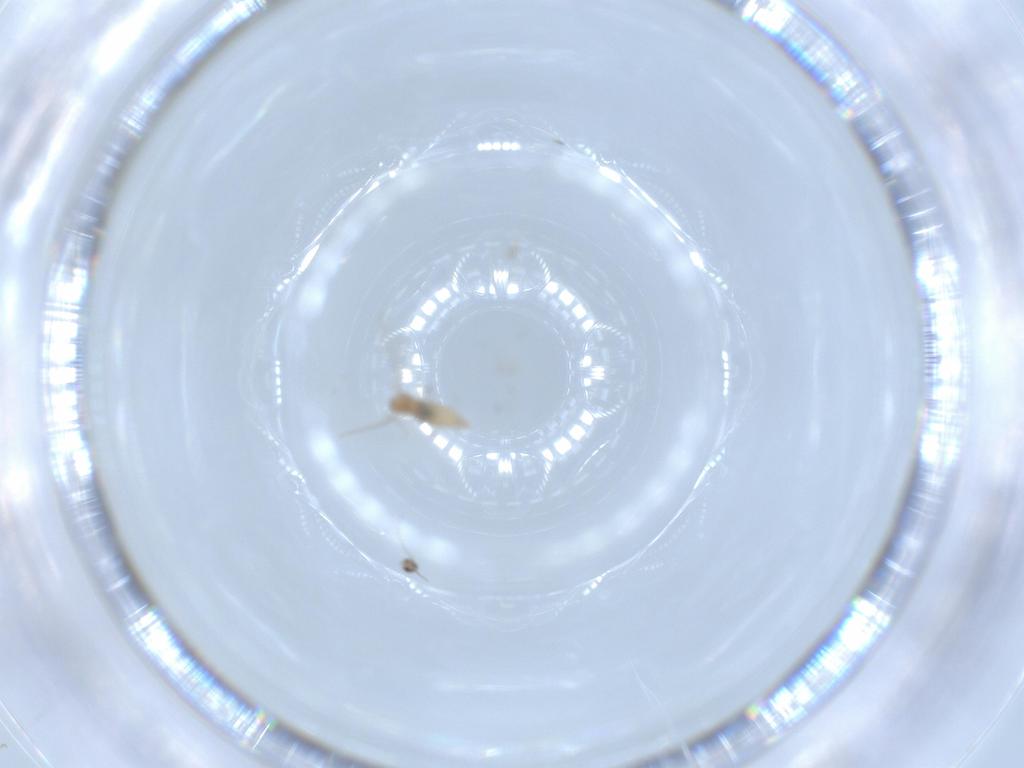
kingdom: Animalia
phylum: Arthropoda
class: Insecta
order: Diptera
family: Cecidomyiidae
